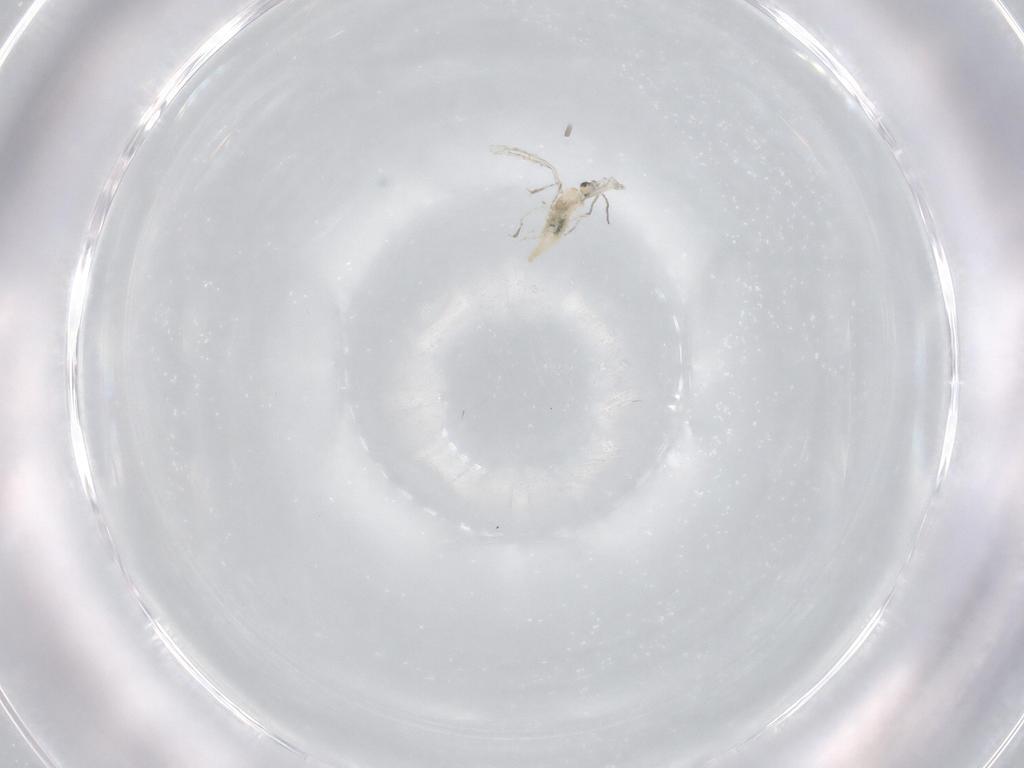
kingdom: Animalia
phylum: Arthropoda
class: Insecta
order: Diptera
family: Cecidomyiidae
